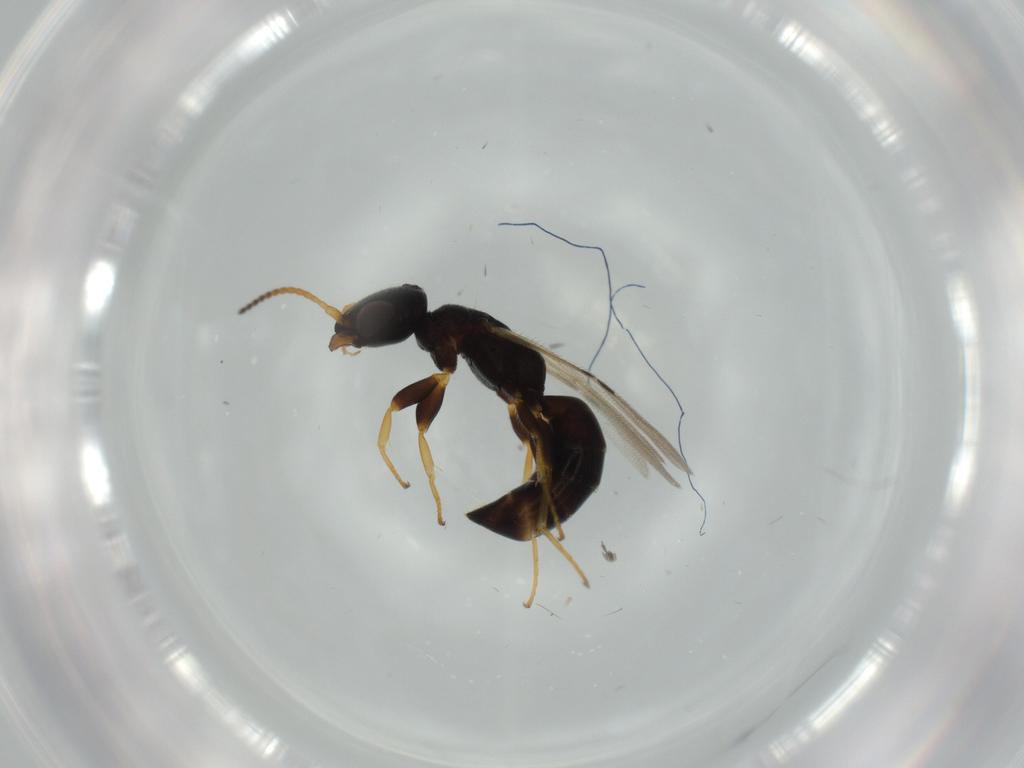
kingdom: Animalia
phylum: Arthropoda
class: Insecta
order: Hymenoptera
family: Bethylidae
